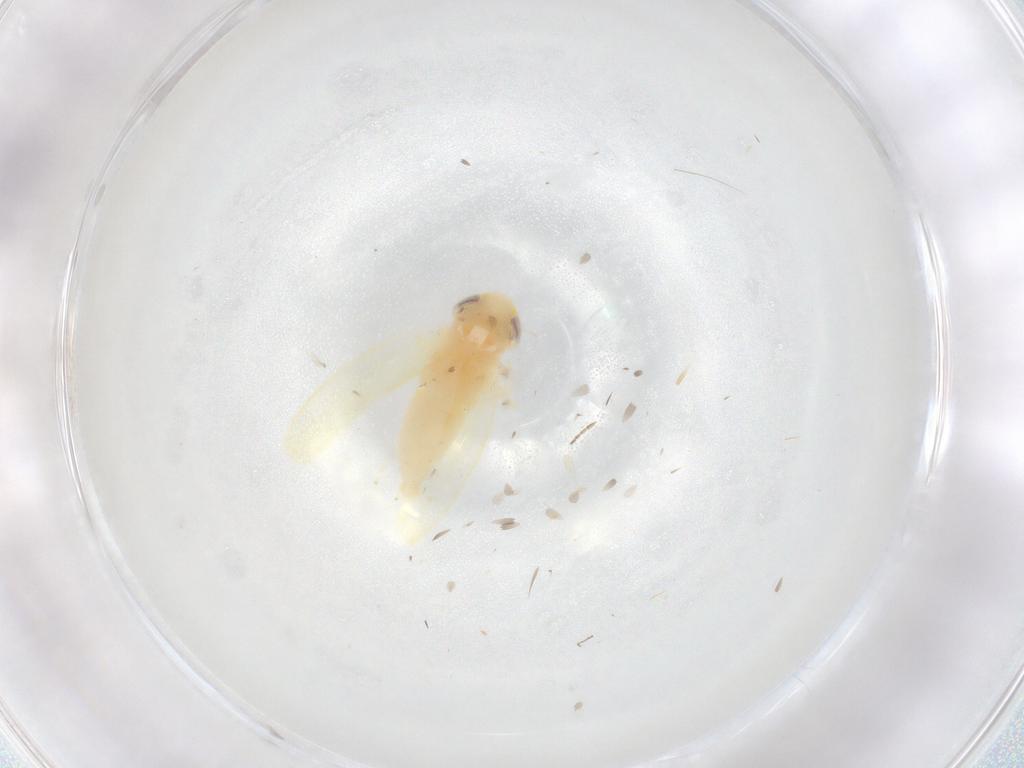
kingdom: Animalia
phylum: Arthropoda
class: Insecta
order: Hemiptera
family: Cicadellidae
